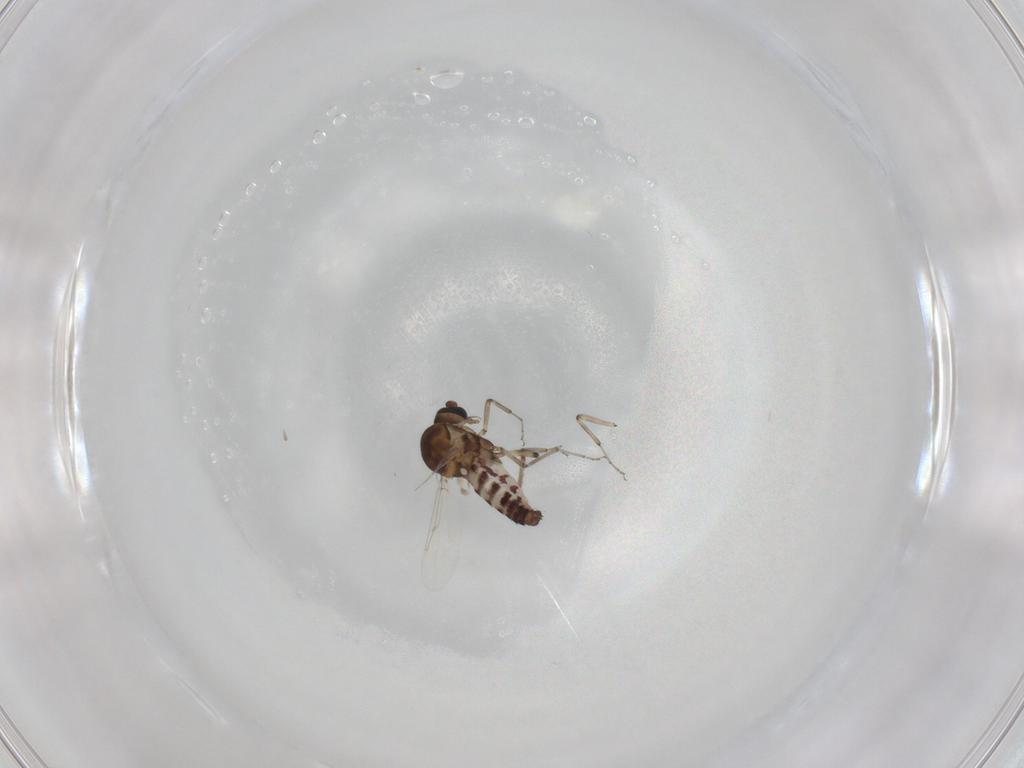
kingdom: Animalia
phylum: Arthropoda
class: Insecta
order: Diptera
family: Ceratopogonidae
